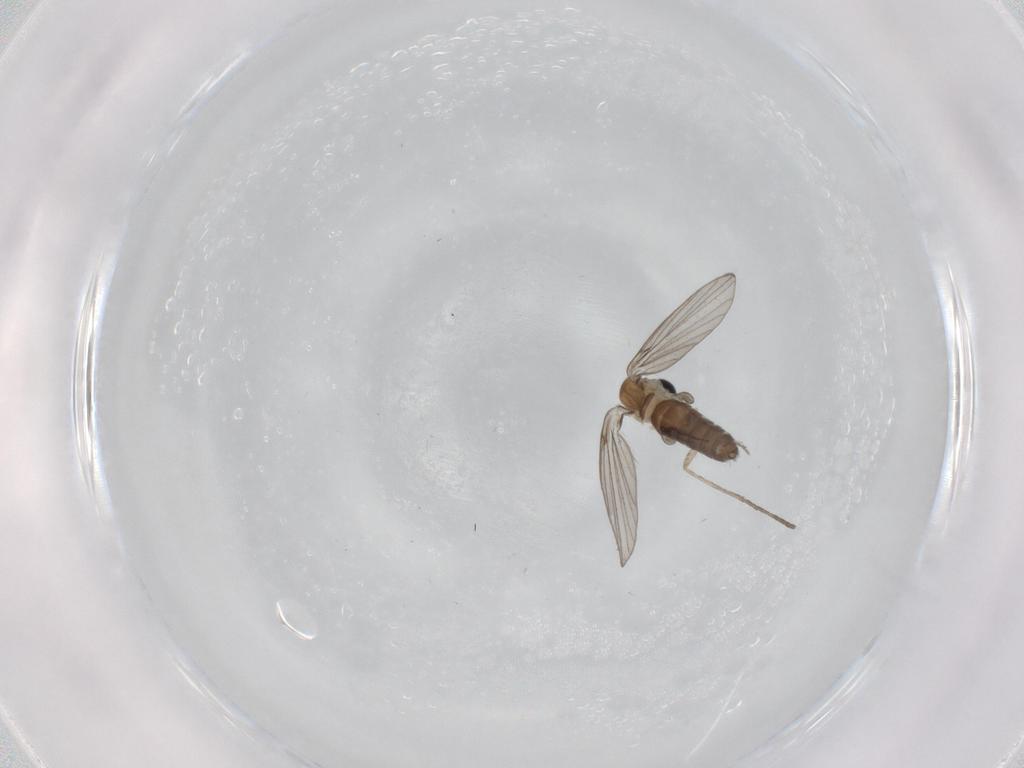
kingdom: Animalia
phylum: Arthropoda
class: Insecta
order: Diptera
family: Psychodidae
